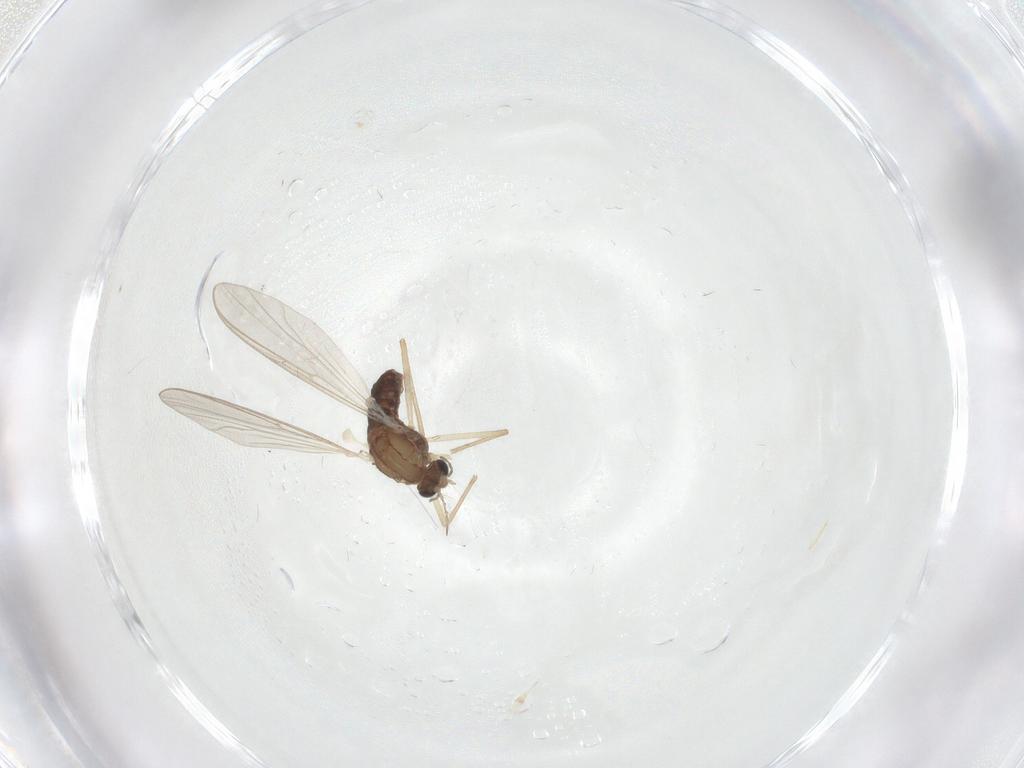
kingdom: Animalia
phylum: Arthropoda
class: Insecta
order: Diptera
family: Chironomidae
